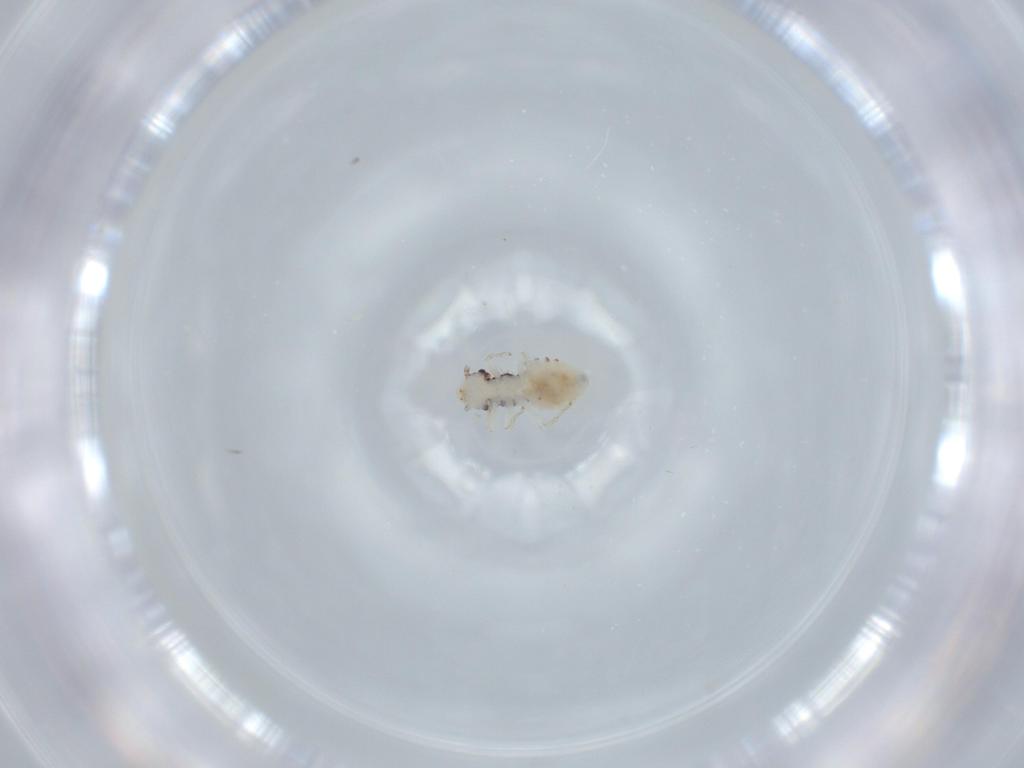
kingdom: Animalia
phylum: Arthropoda
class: Insecta
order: Psocodea
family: Pseudocaeciliidae
